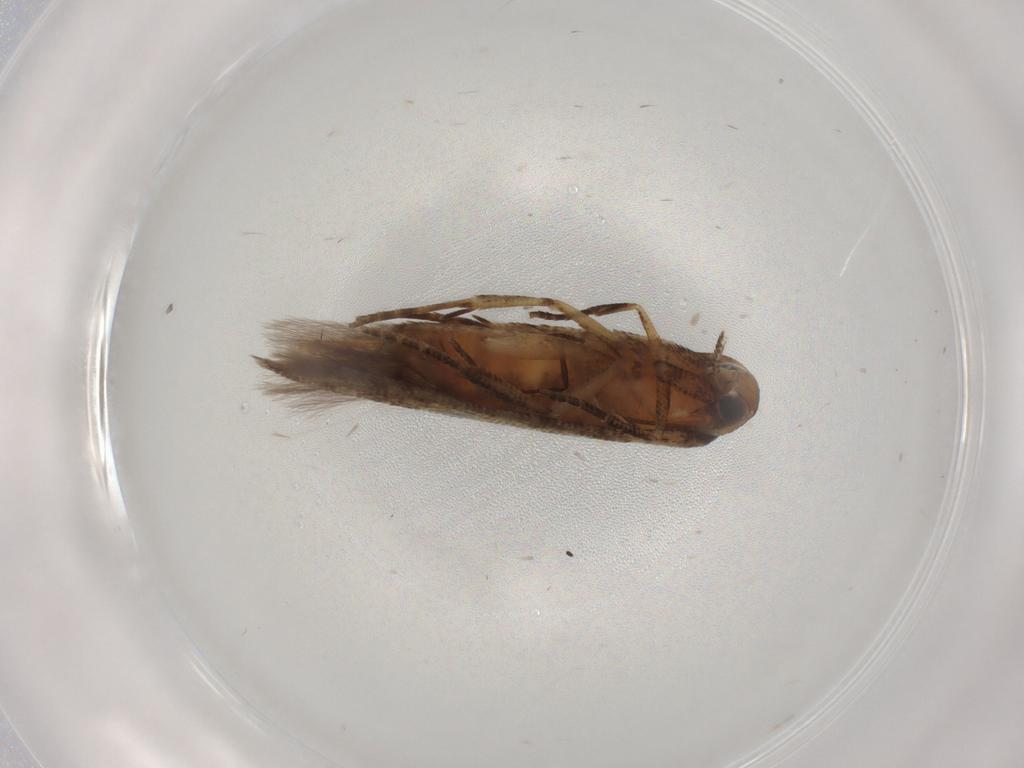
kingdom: Animalia
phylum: Arthropoda
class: Insecta
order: Lepidoptera
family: Cosmopterigidae
